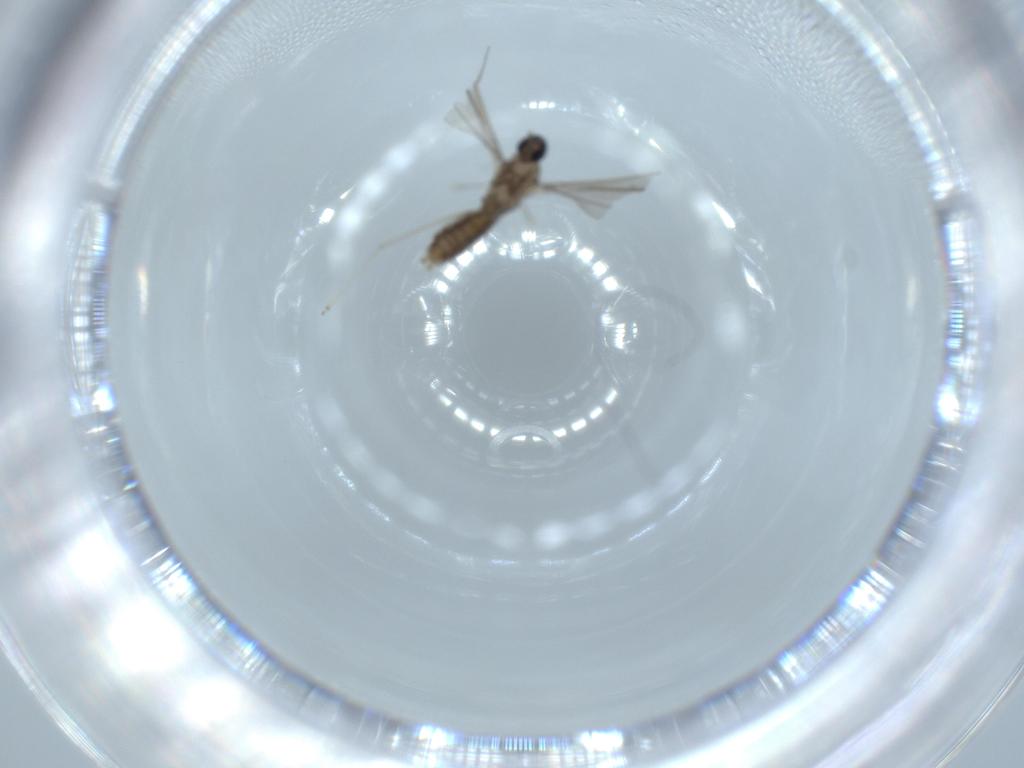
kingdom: Animalia
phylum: Arthropoda
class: Insecta
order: Diptera
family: Cecidomyiidae
